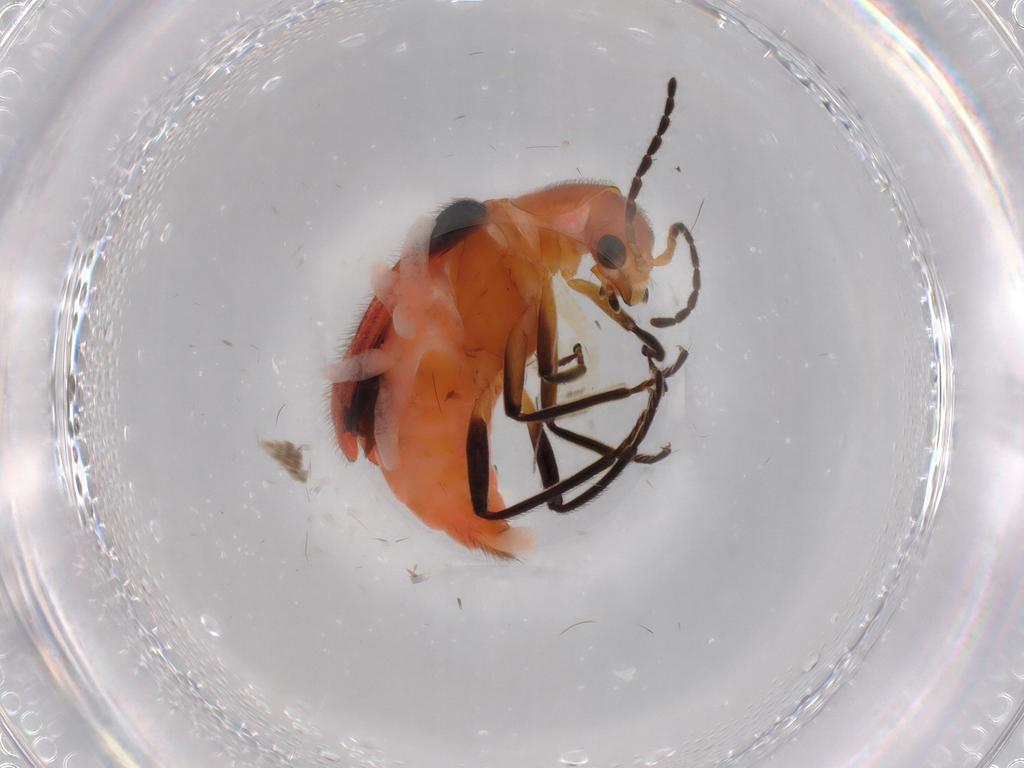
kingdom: Animalia
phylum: Arthropoda
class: Insecta
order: Coleoptera
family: Melyridae
